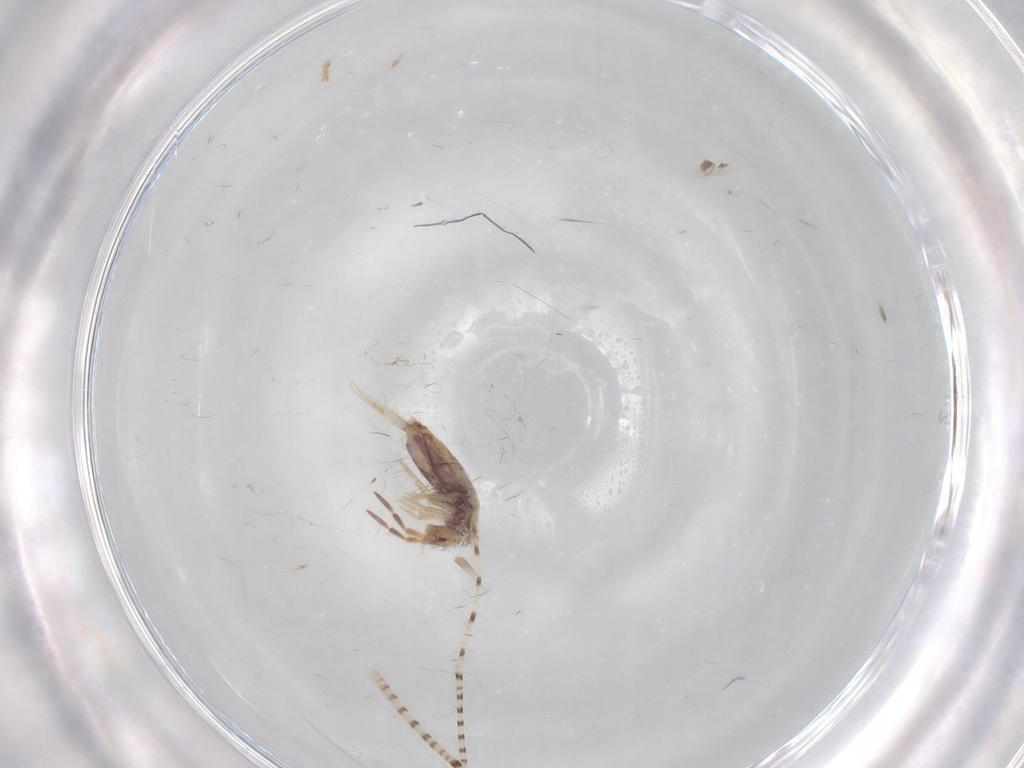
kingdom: Animalia
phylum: Arthropoda
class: Collembola
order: Entomobryomorpha
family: Entomobryidae
